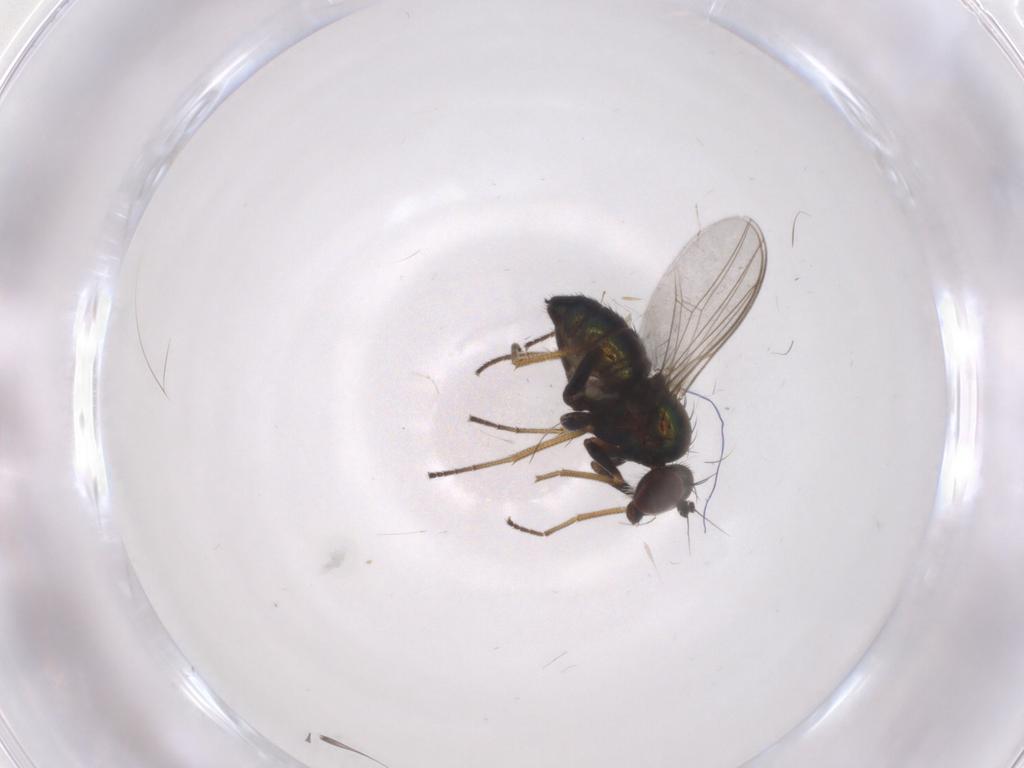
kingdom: Animalia
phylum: Arthropoda
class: Insecta
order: Diptera
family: Dolichopodidae
